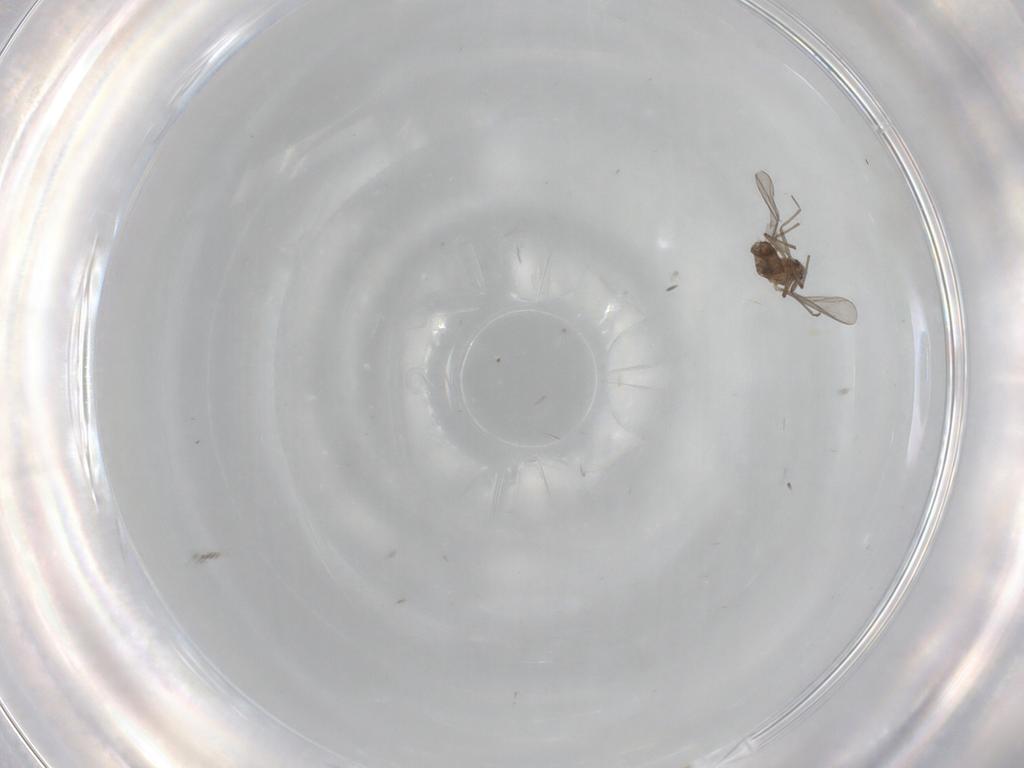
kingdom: Animalia
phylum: Arthropoda
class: Insecta
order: Diptera
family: Chironomidae
